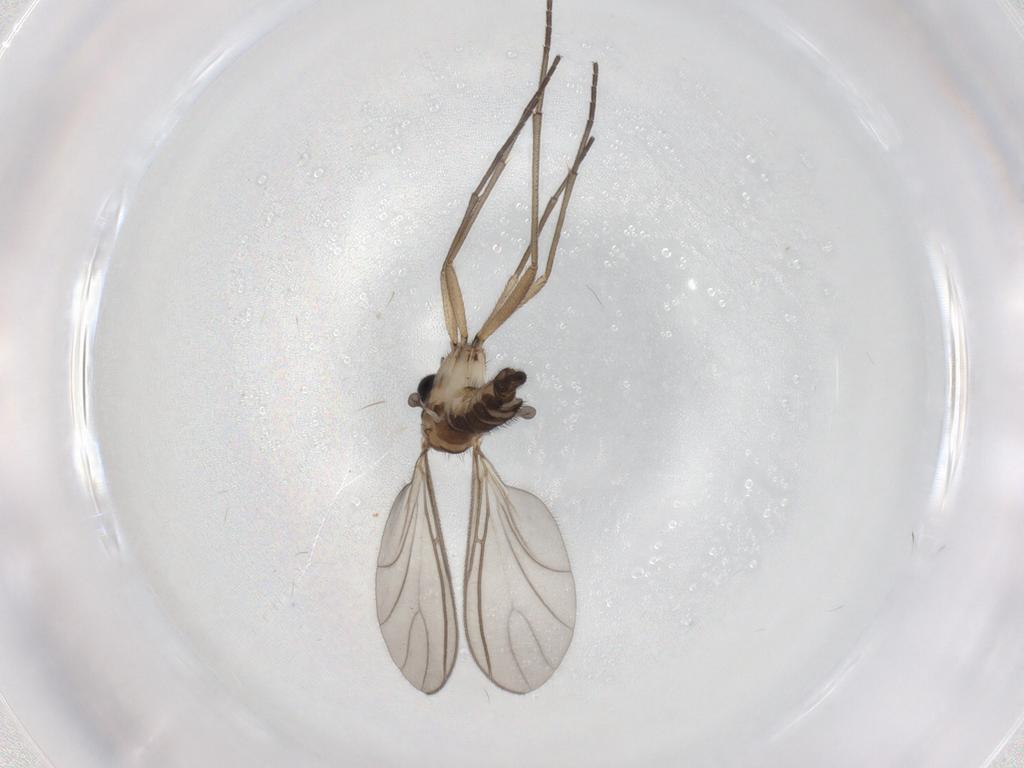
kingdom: Animalia
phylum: Arthropoda
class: Insecta
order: Diptera
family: Sciaridae
